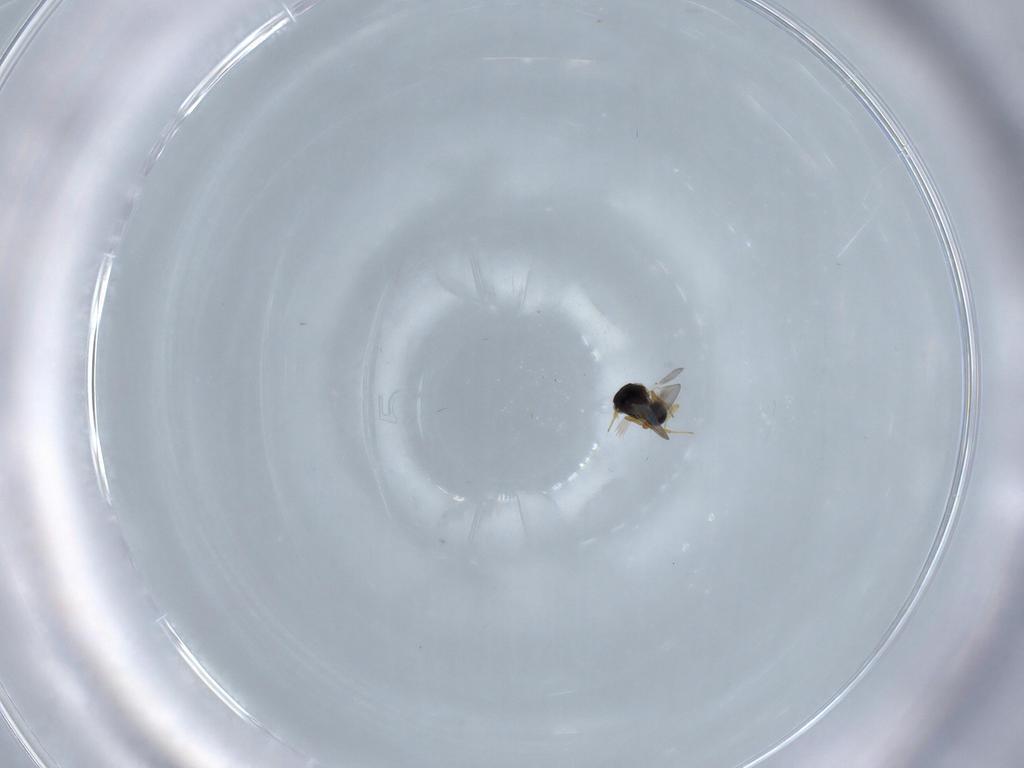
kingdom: Animalia
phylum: Arthropoda
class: Insecta
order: Hymenoptera
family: Platygastridae
